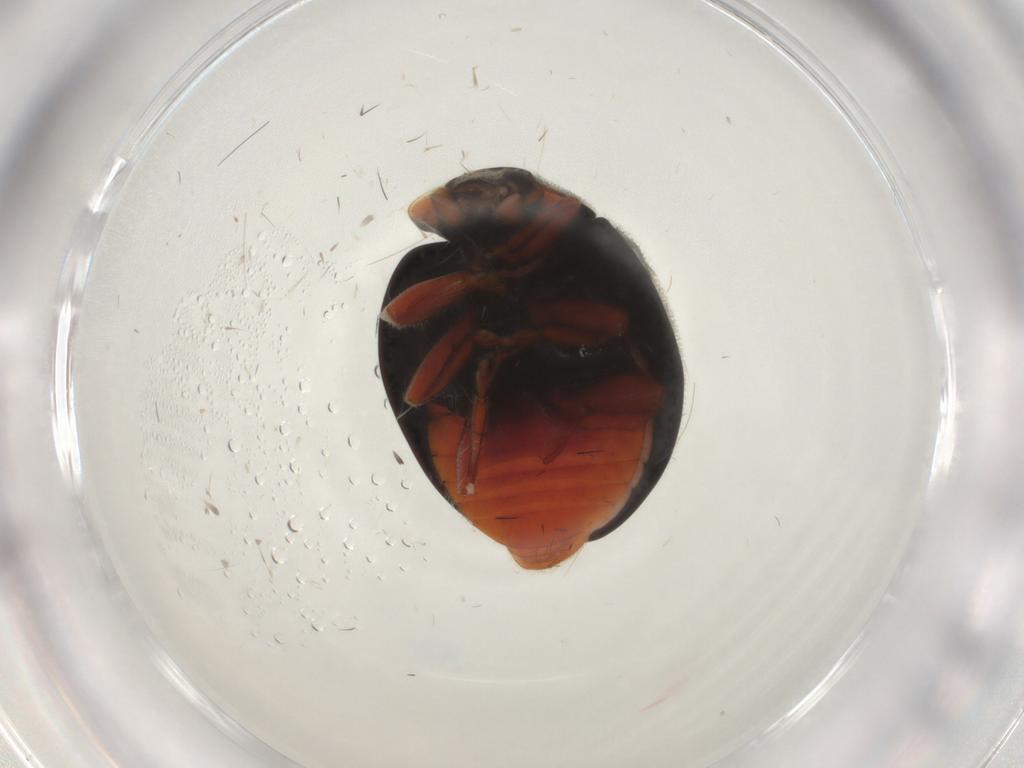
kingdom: Animalia
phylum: Arthropoda
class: Insecta
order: Coleoptera
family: Coccinellidae
